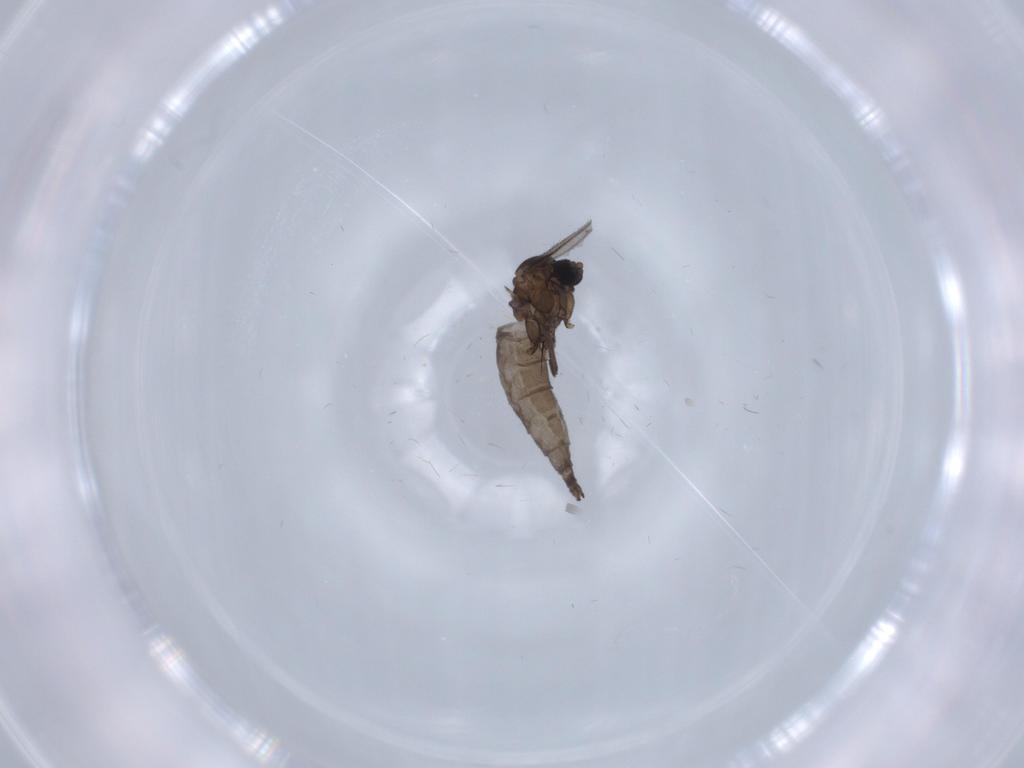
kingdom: Animalia
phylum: Arthropoda
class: Insecta
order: Diptera
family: Sciaridae
